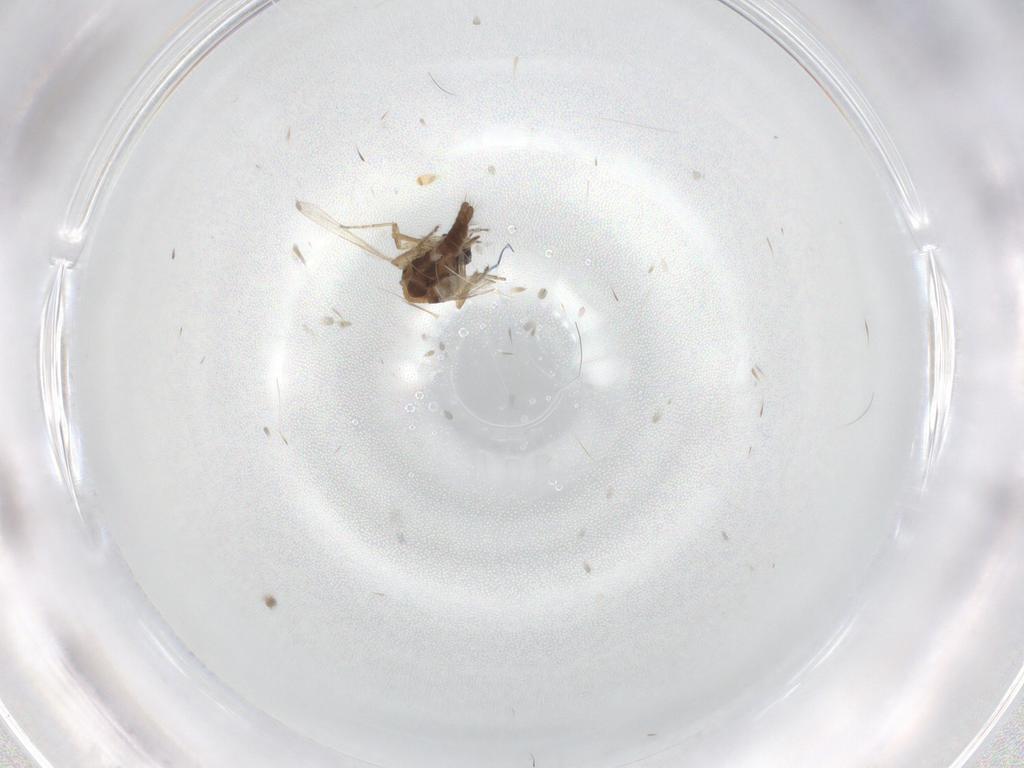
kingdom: Animalia
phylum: Arthropoda
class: Insecta
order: Diptera
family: Ceratopogonidae
